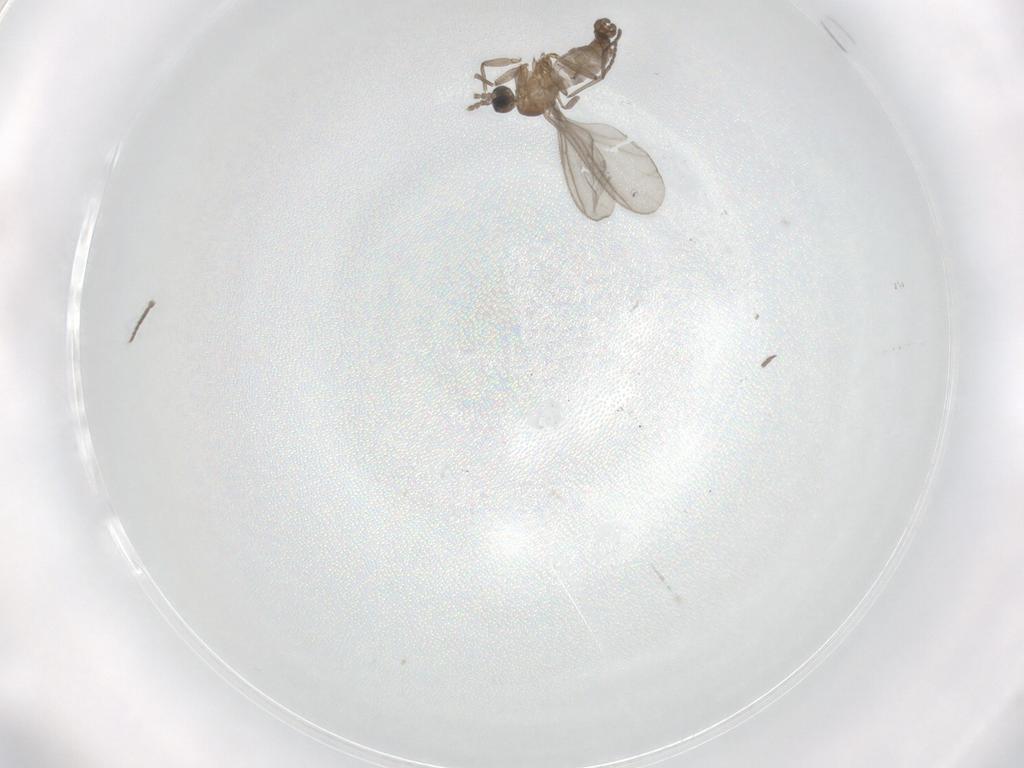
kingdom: Animalia
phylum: Arthropoda
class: Insecta
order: Diptera
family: Sciaridae
